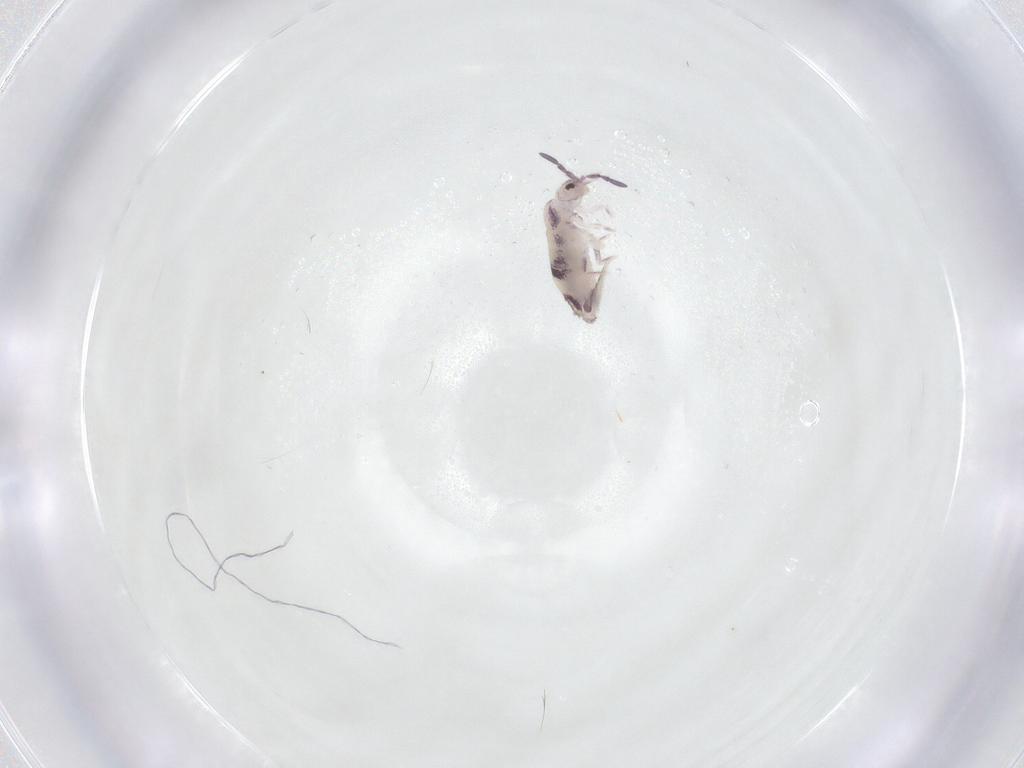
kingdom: Animalia
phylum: Arthropoda
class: Collembola
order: Entomobryomorpha
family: Entomobryidae
